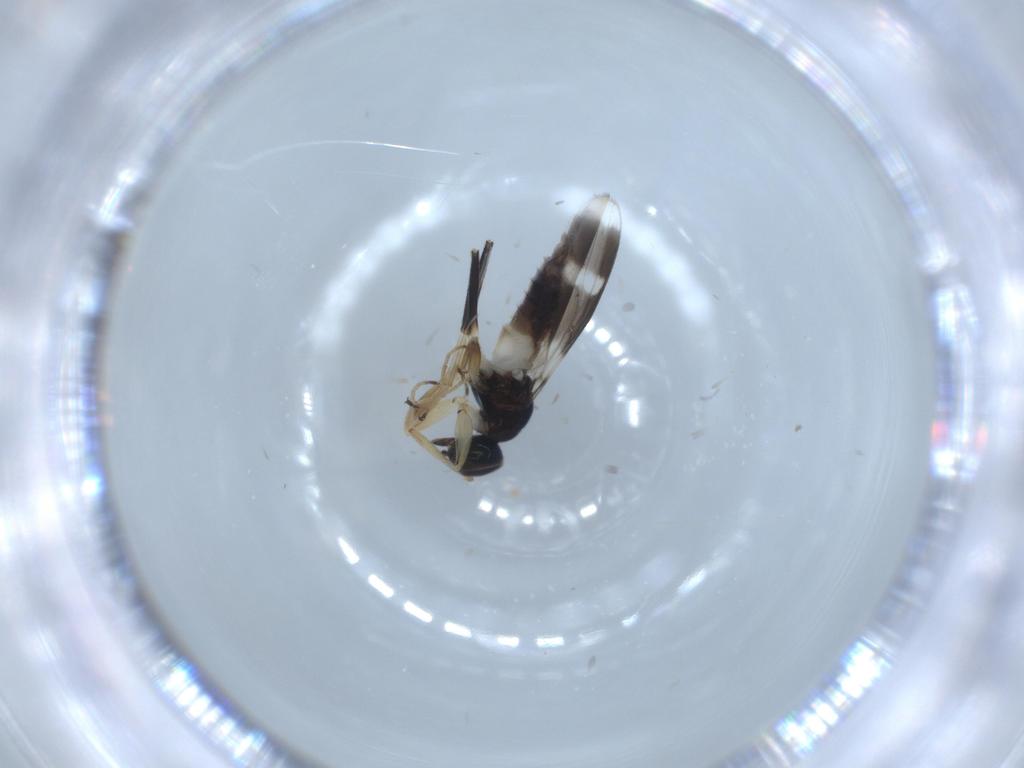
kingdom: Animalia
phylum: Arthropoda
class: Insecta
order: Diptera
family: Hybotidae
